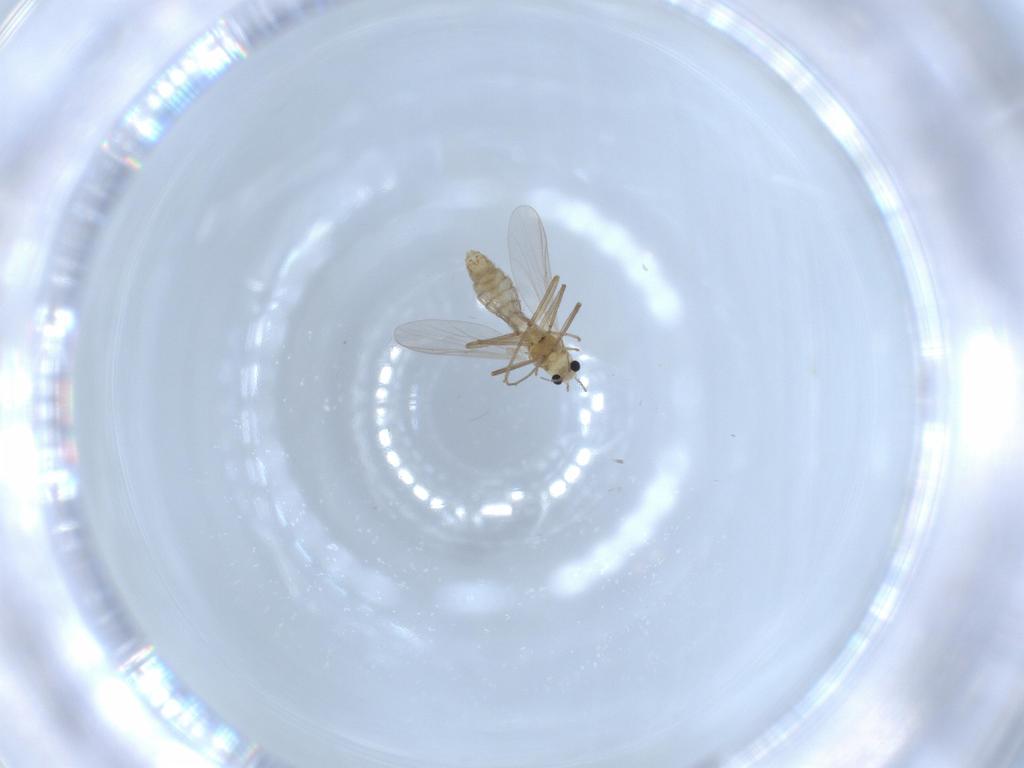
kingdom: Animalia
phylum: Arthropoda
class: Insecta
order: Diptera
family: Chironomidae
